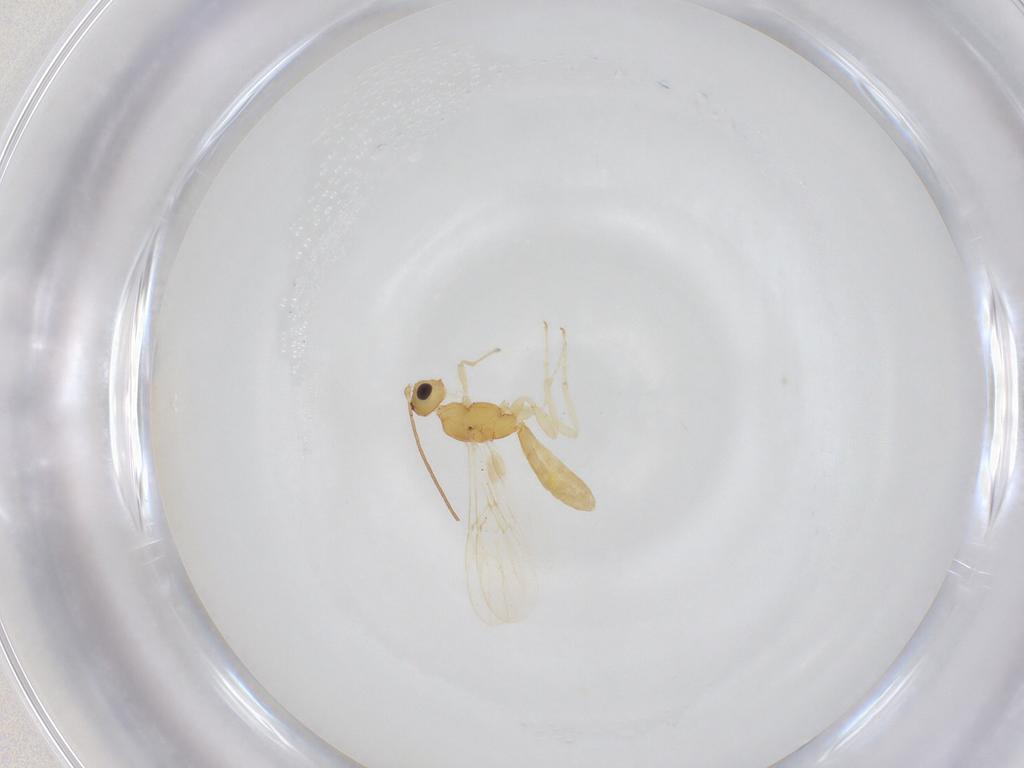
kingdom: Animalia
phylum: Arthropoda
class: Insecta
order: Hymenoptera
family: Braconidae
